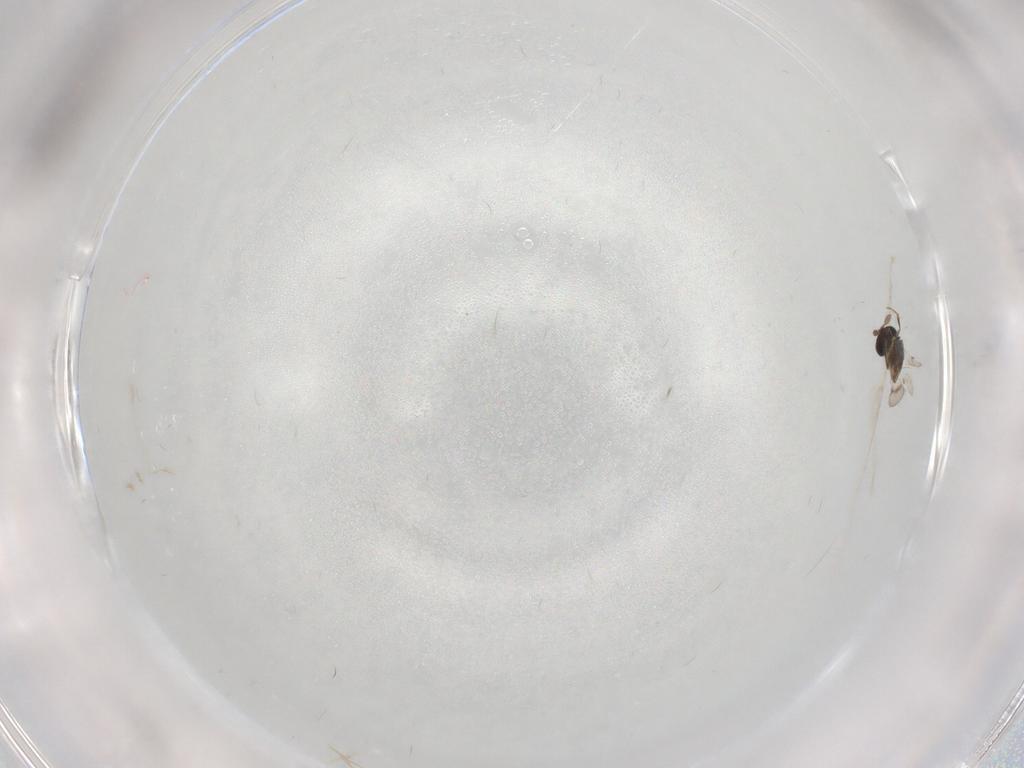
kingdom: Animalia
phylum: Arthropoda
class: Insecta
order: Hymenoptera
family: Scelionidae
